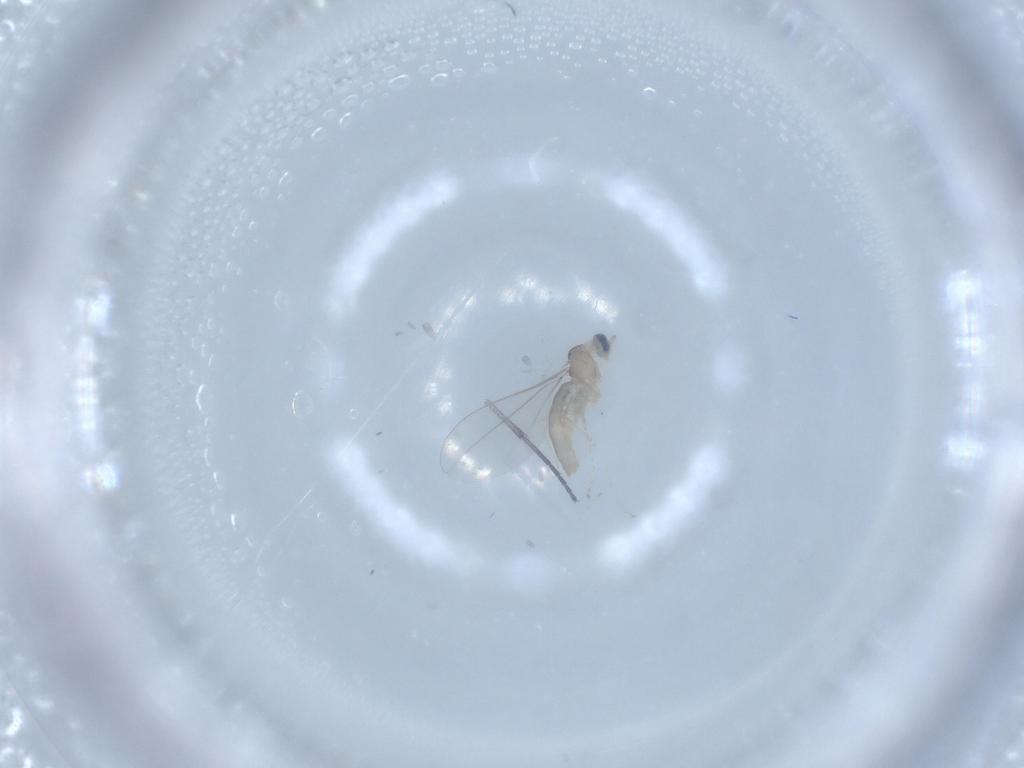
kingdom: Animalia
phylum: Arthropoda
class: Insecta
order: Diptera
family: Cecidomyiidae
